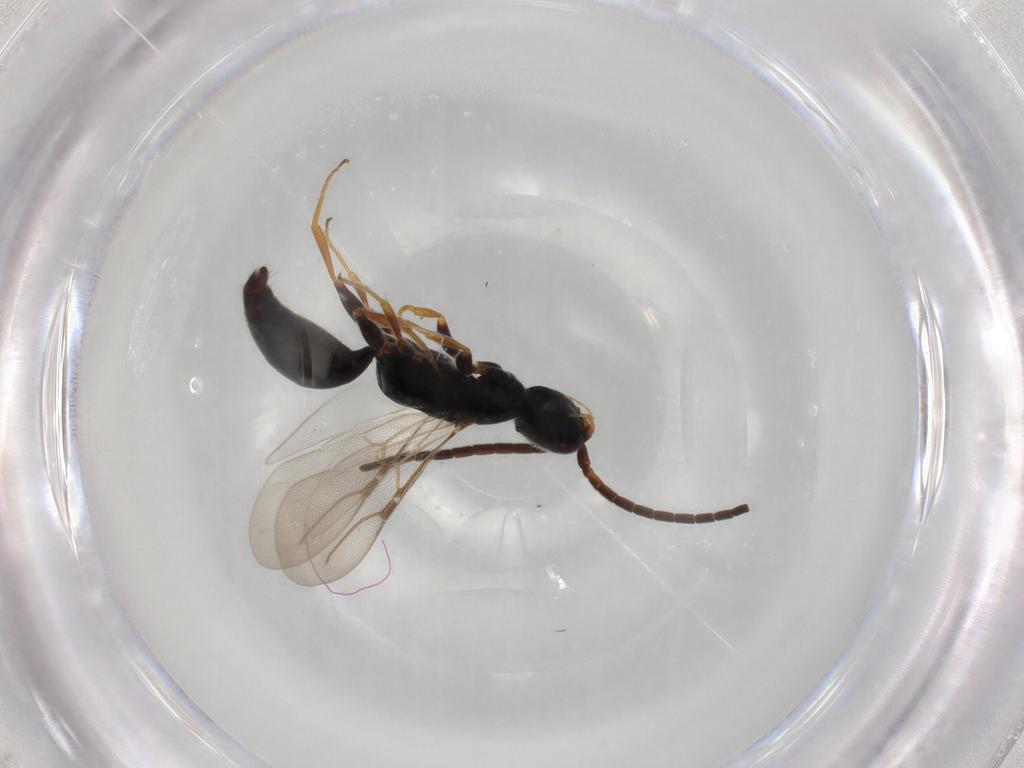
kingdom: Animalia
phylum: Arthropoda
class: Insecta
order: Hymenoptera
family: Bethylidae
